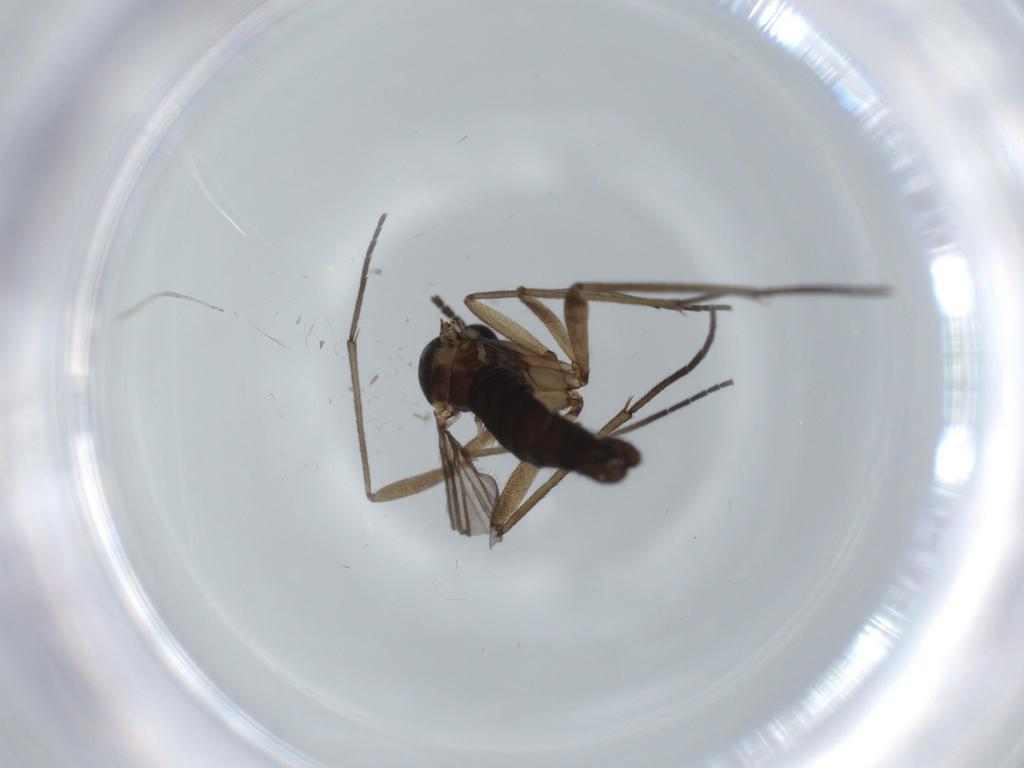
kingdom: Animalia
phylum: Arthropoda
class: Insecta
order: Diptera
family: Sciaridae
